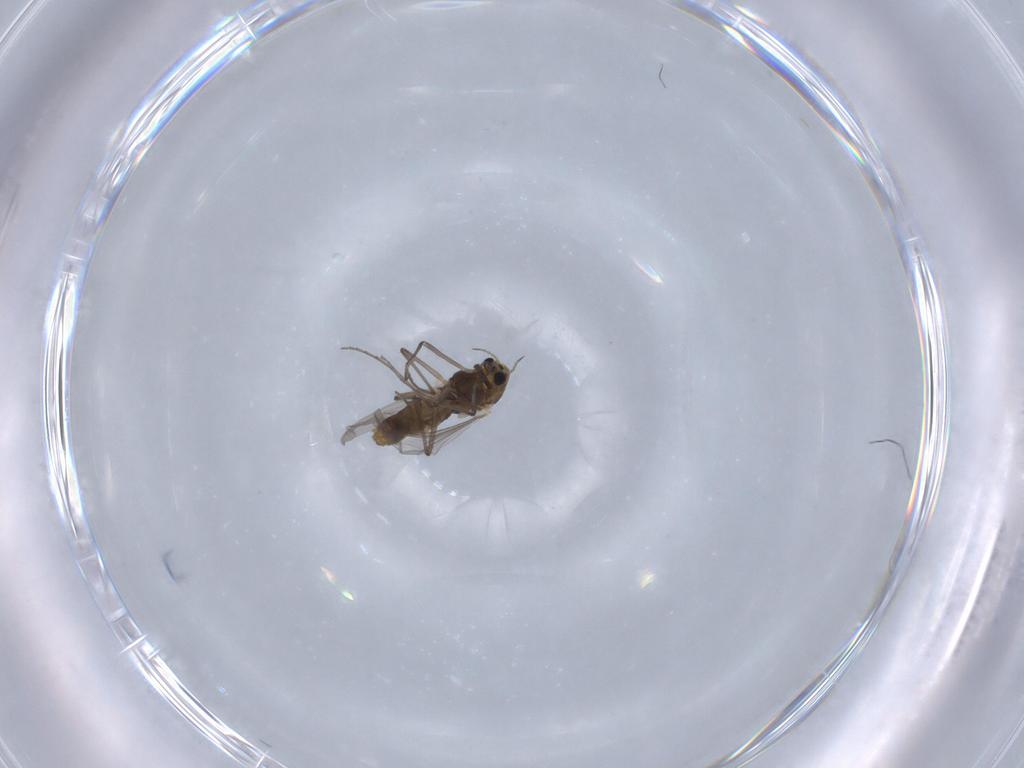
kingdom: Animalia
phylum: Arthropoda
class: Insecta
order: Diptera
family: Chironomidae
